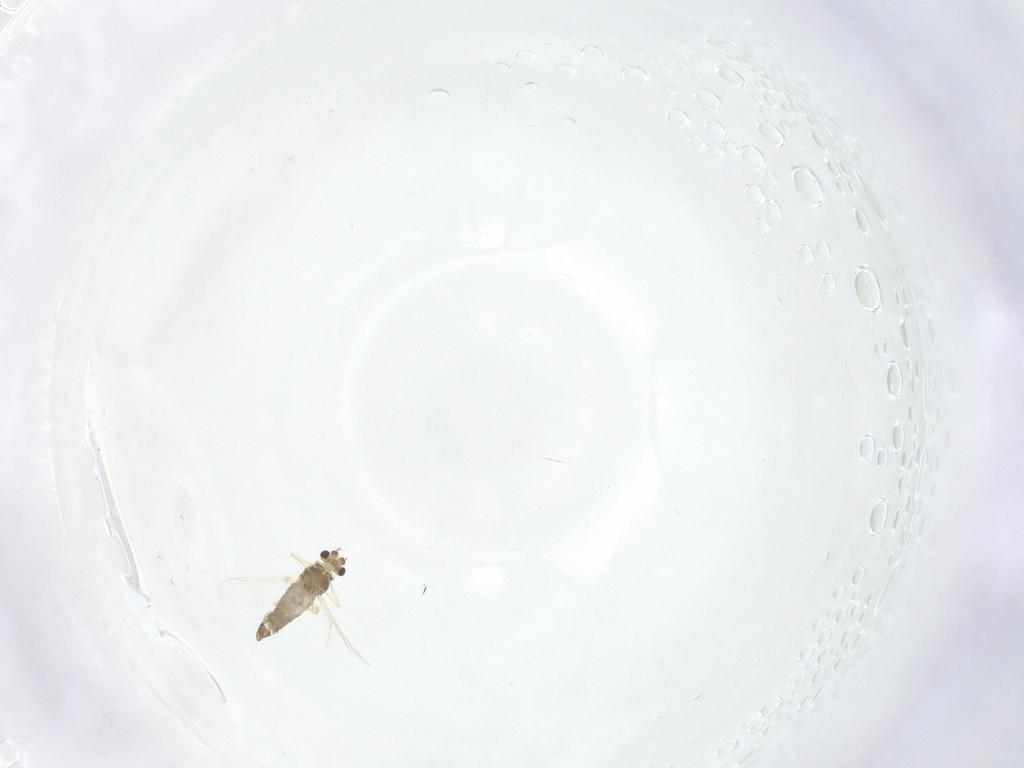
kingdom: Animalia
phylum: Arthropoda
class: Insecta
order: Diptera
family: Chironomidae
